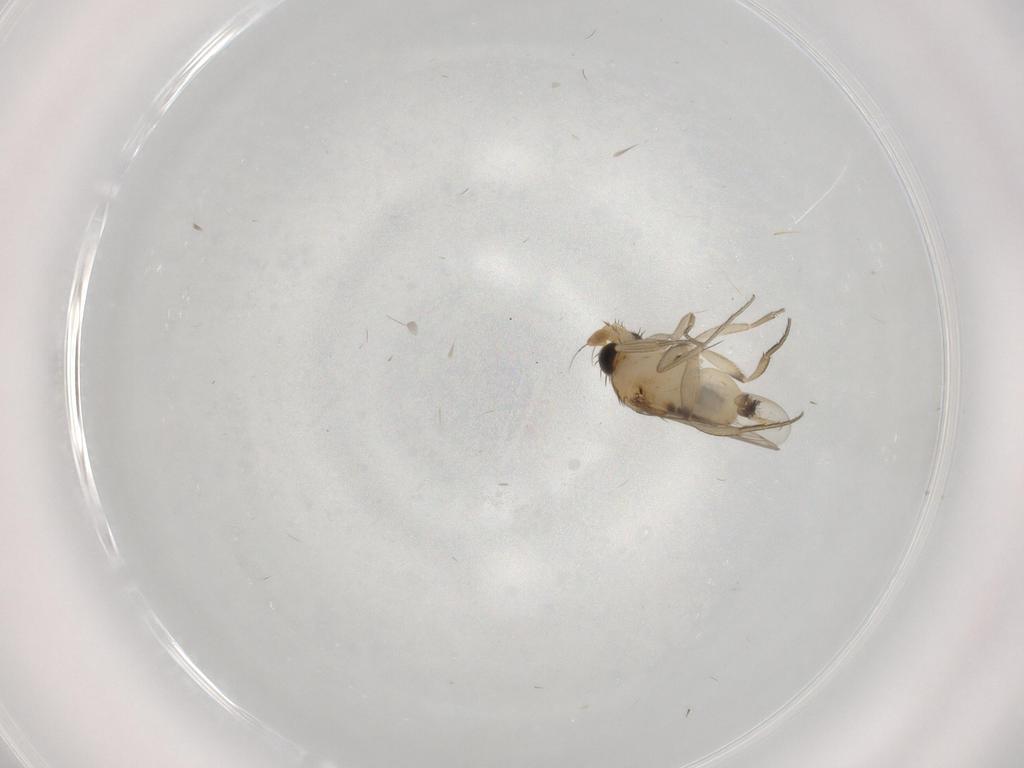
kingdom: Animalia
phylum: Arthropoda
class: Insecta
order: Diptera
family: Phoridae
